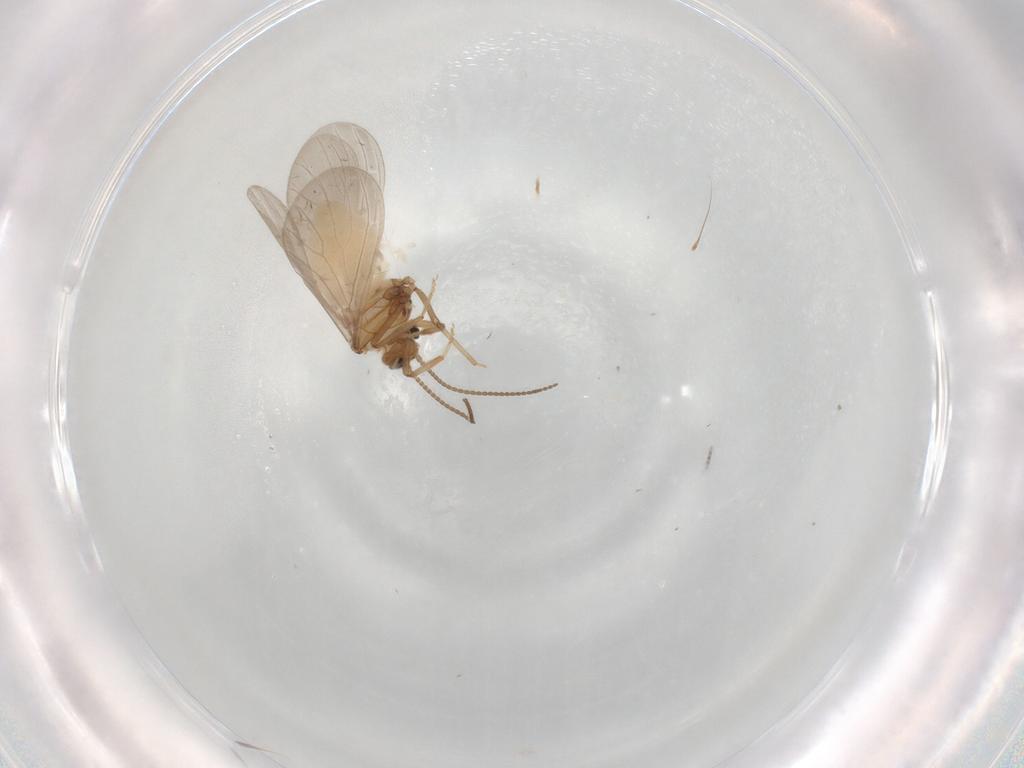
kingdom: Animalia
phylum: Arthropoda
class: Insecta
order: Neuroptera
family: Coniopterygidae
